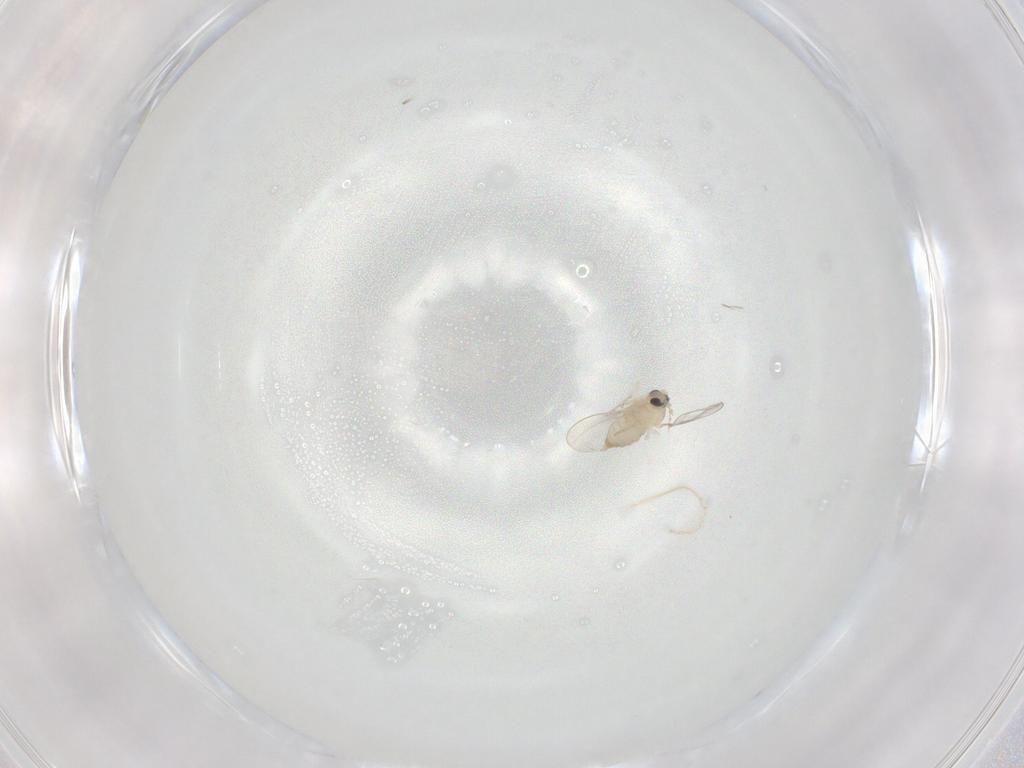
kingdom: Animalia
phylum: Arthropoda
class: Insecta
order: Diptera
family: Cecidomyiidae
